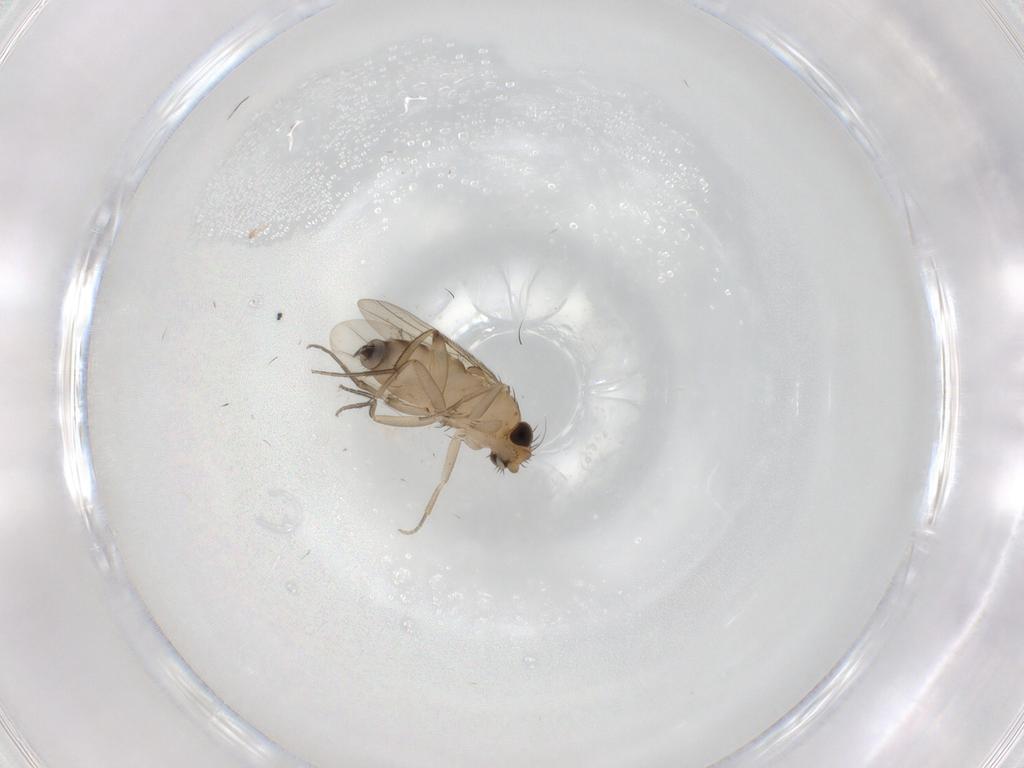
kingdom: Animalia
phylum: Arthropoda
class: Insecta
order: Diptera
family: Phoridae
